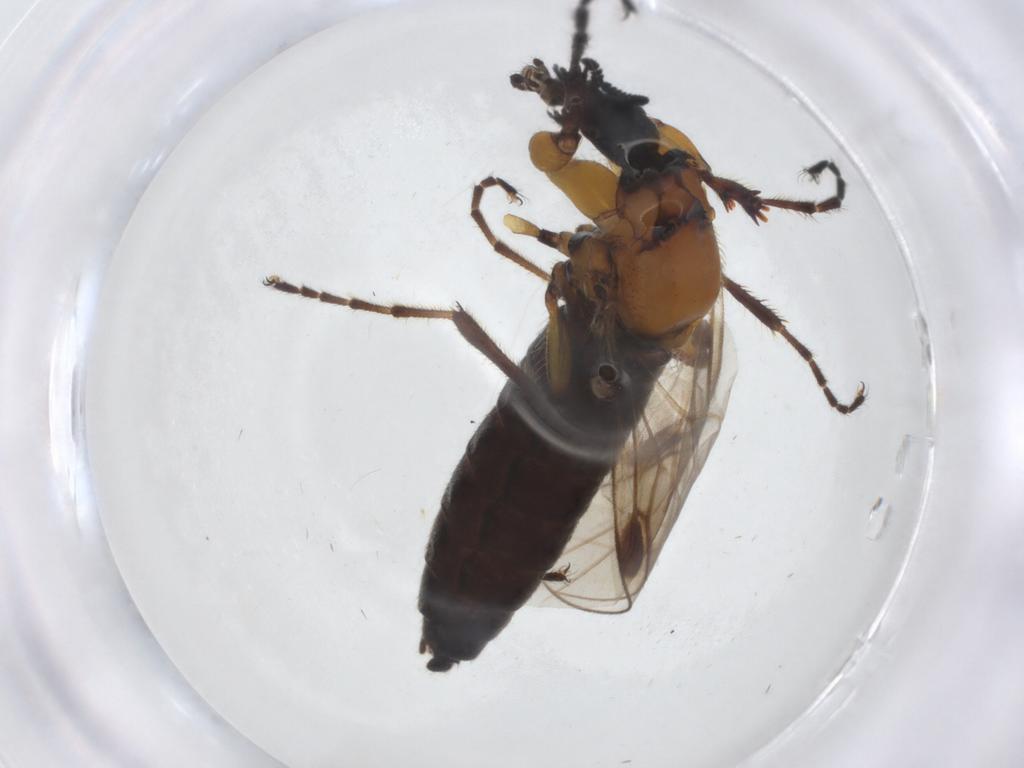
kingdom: Animalia
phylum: Arthropoda
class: Insecta
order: Diptera
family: Bibionidae
